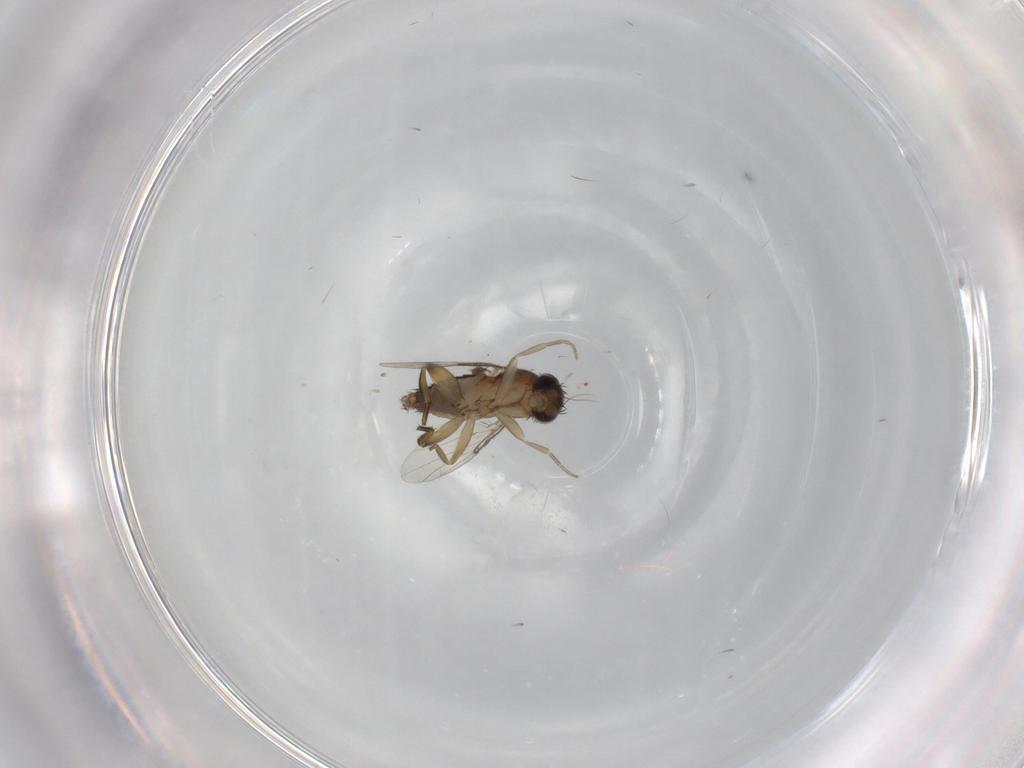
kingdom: Animalia
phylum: Arthropoda
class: Insecta
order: Diptera
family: Phoridae
